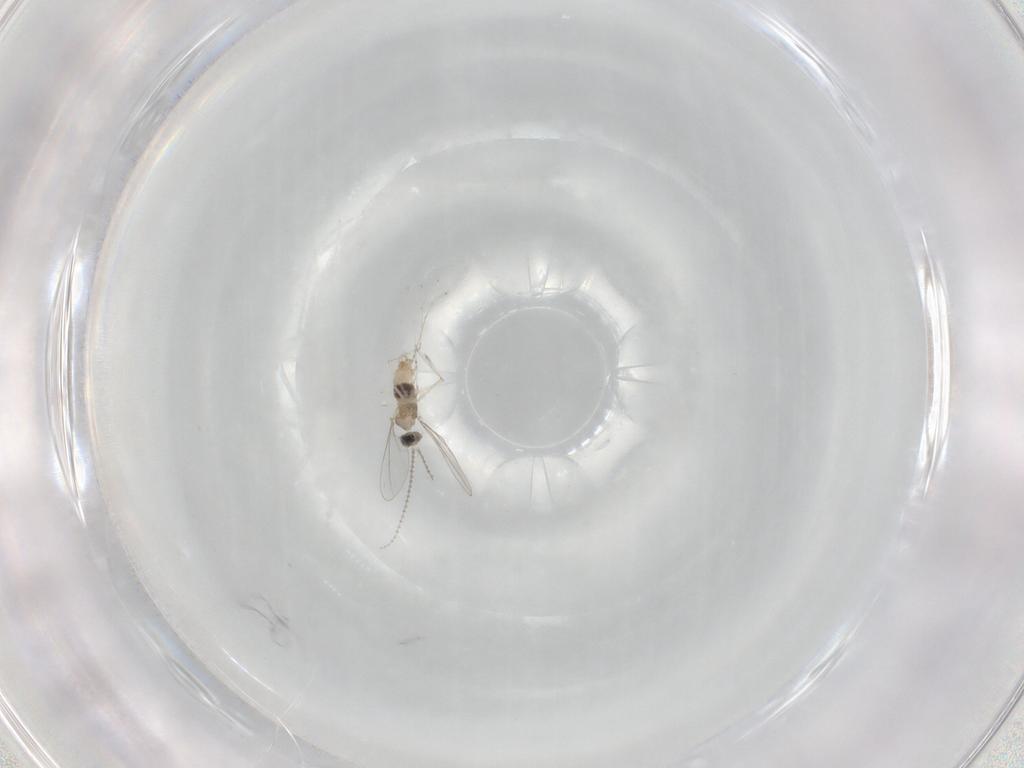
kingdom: Animalia
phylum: Arthropoda
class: Insecta
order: Diptera
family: Cecidomyiidae
